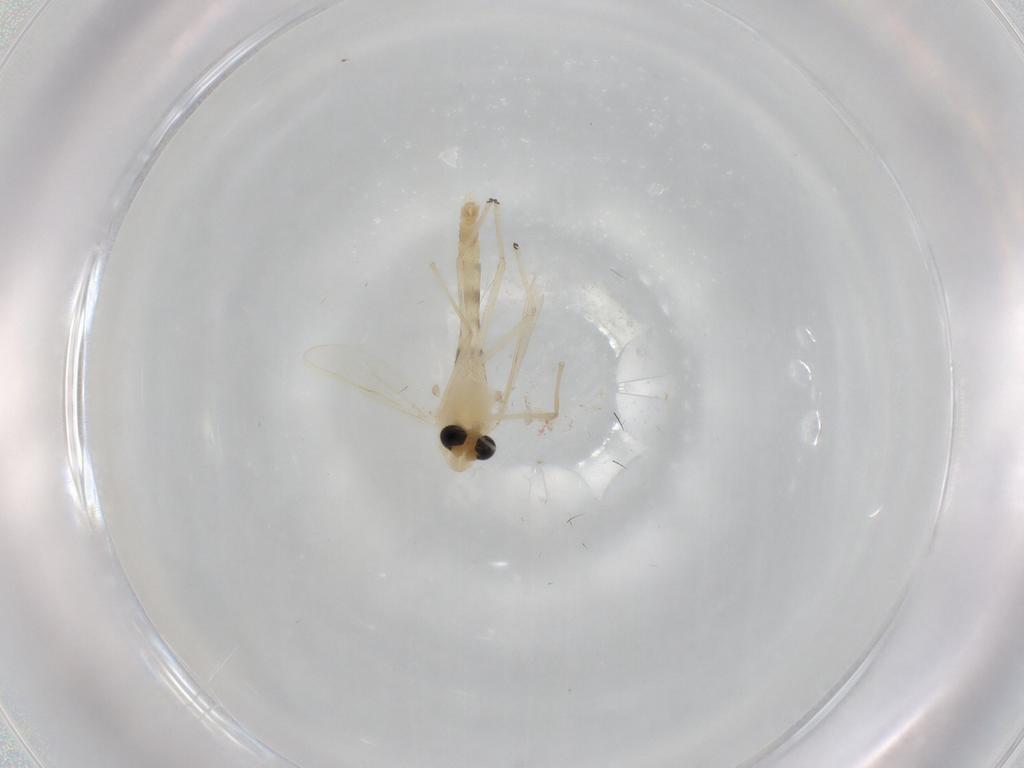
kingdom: Animalia
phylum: Arthropoda
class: Insecta
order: Diptera
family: Chironomidae
